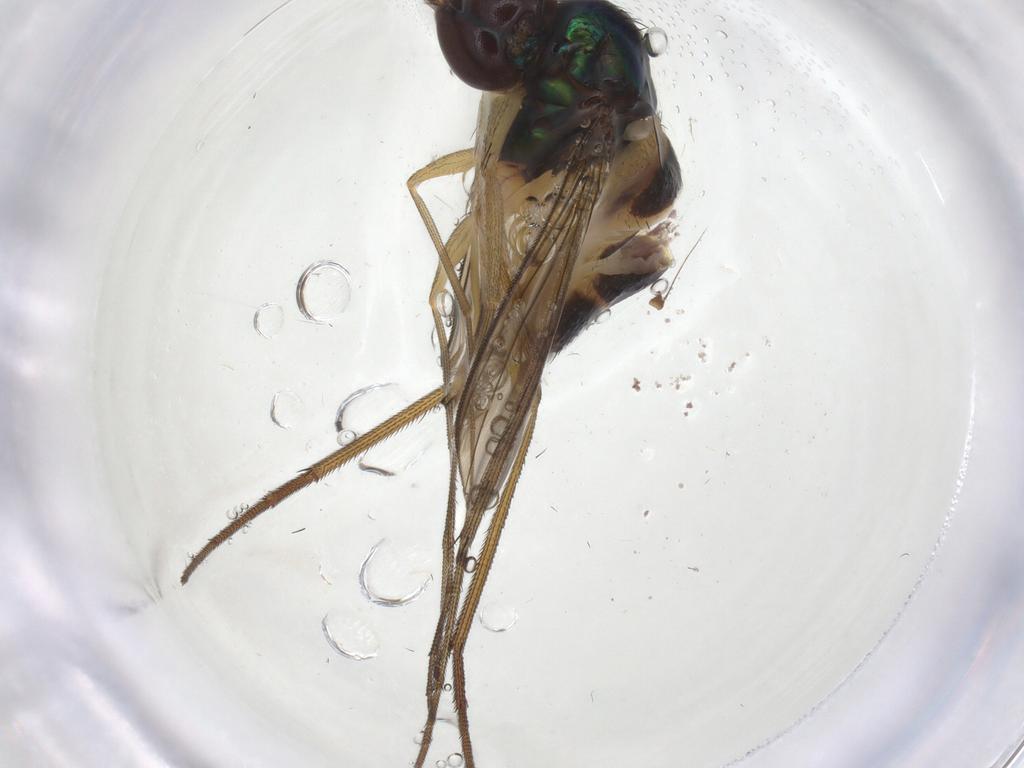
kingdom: Animalia
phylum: Arthropoda
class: Insecta
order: Diptera
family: Dolichopodidae
